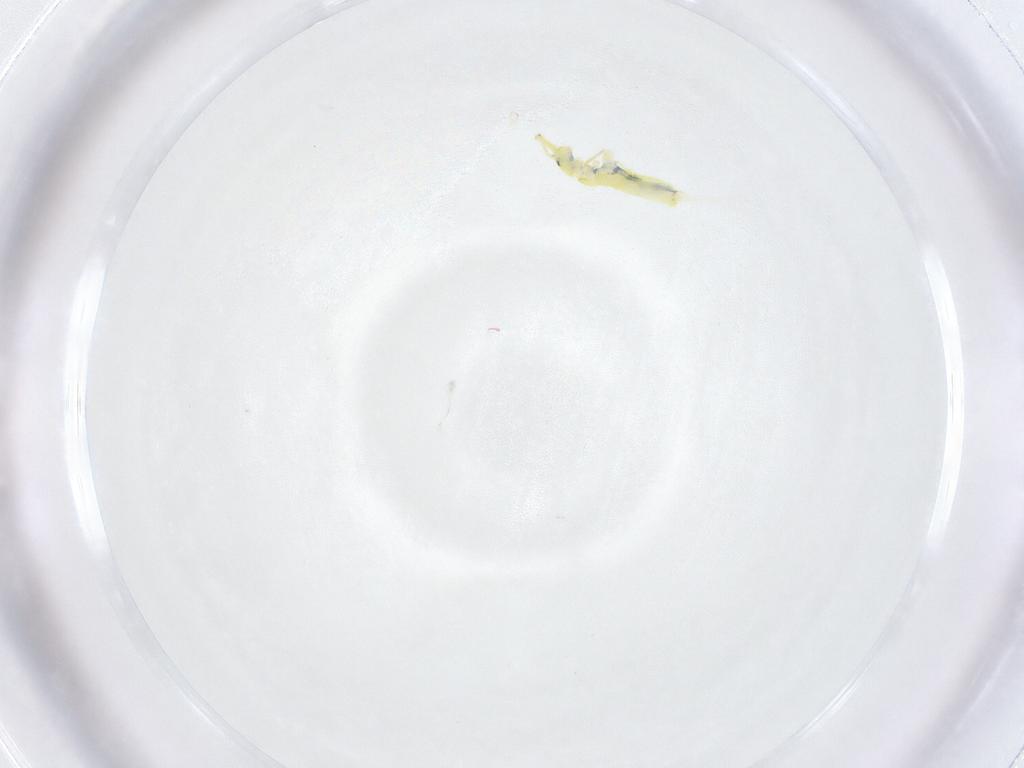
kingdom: Animalia
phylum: Arthropoda
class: Collembola
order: Entomobryomorpha
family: Paronellidae
